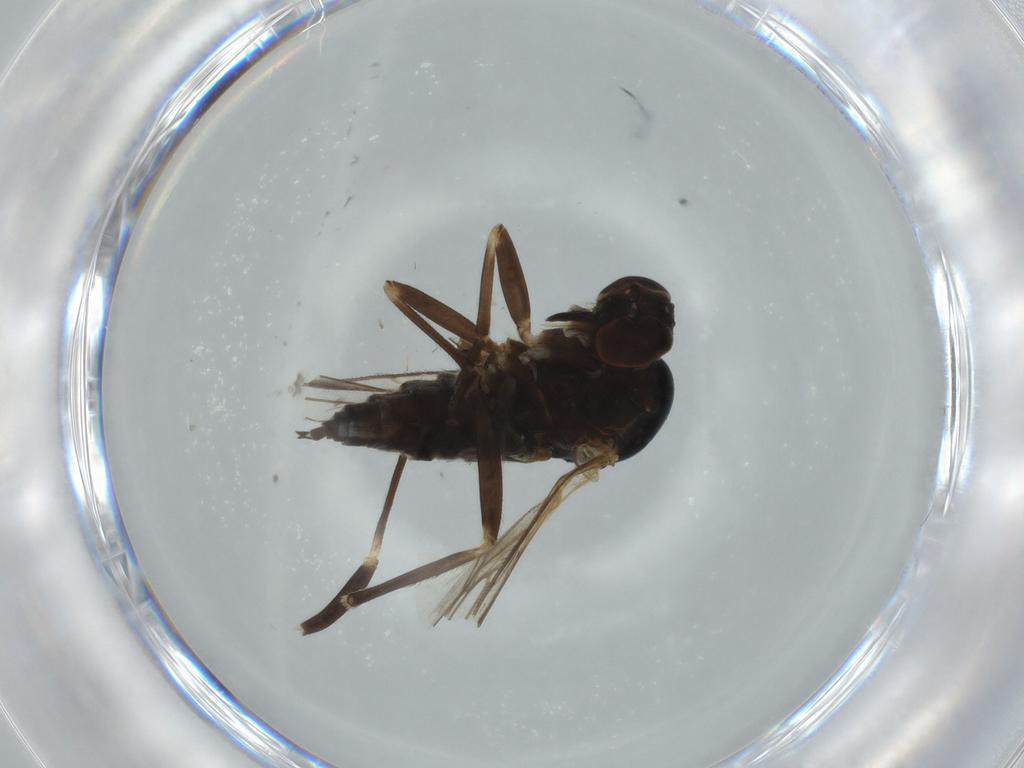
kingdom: Animalia
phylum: Arthropoda
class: Insecta
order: Diptera
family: Empididae
